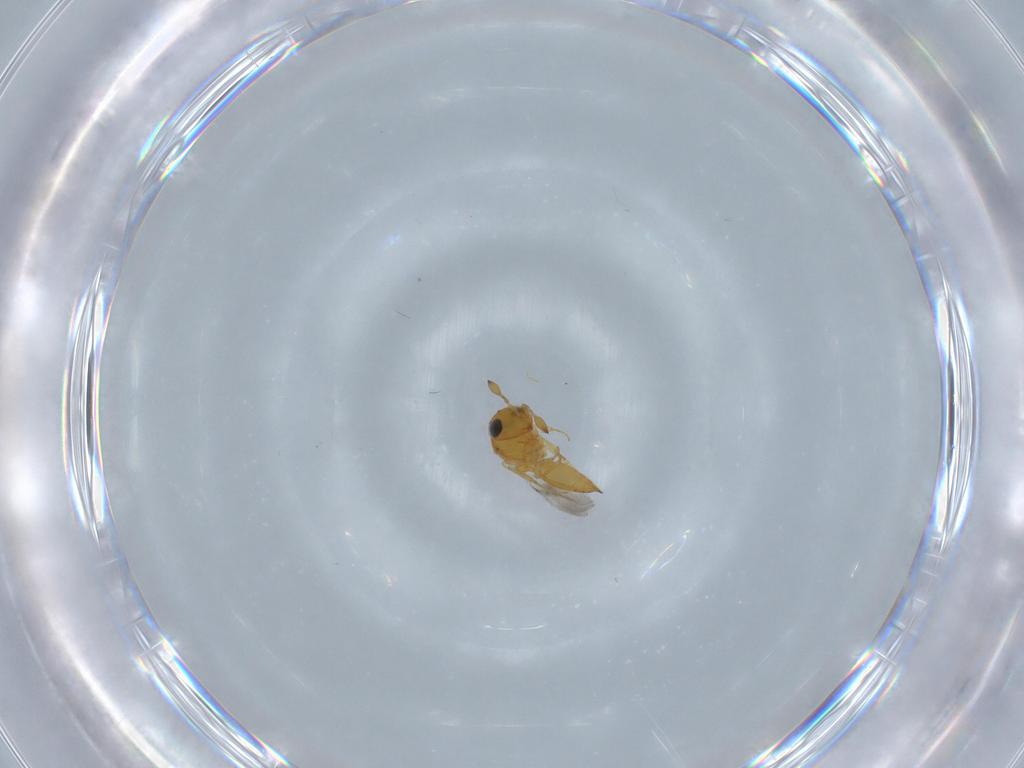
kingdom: Animalia
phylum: Arthropoda
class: Insecta
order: Hymenoptera
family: Scelionidae
